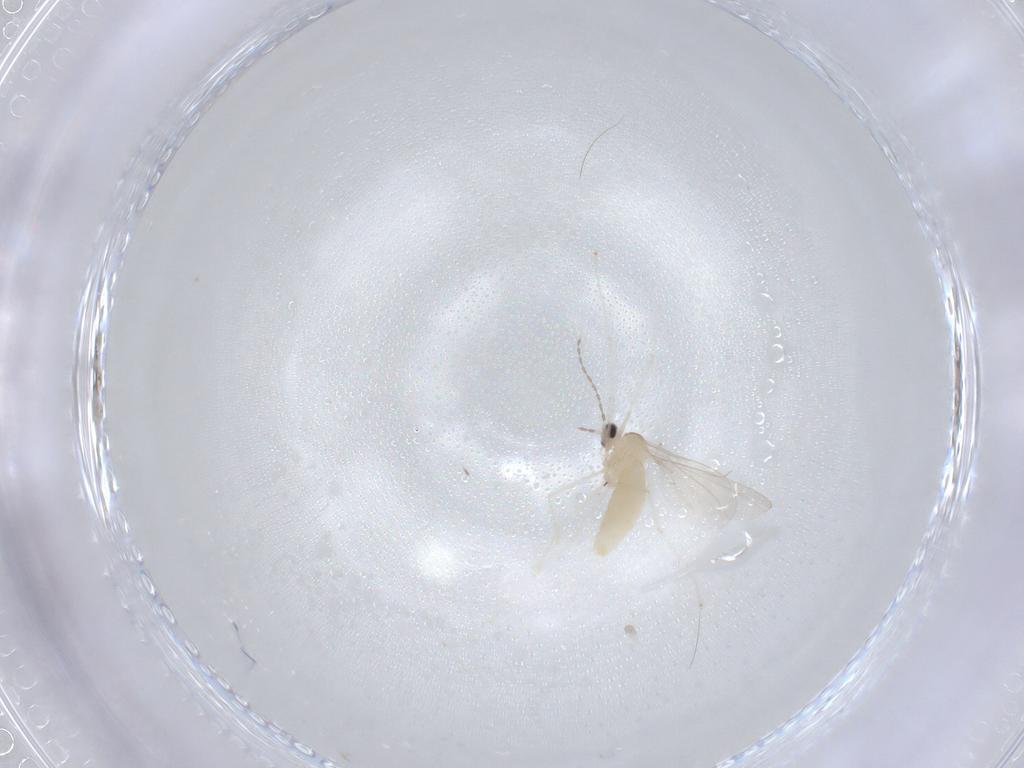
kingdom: Animalia
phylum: Arthropoda
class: Insecta
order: Diptera
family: Cecidomyiidae
